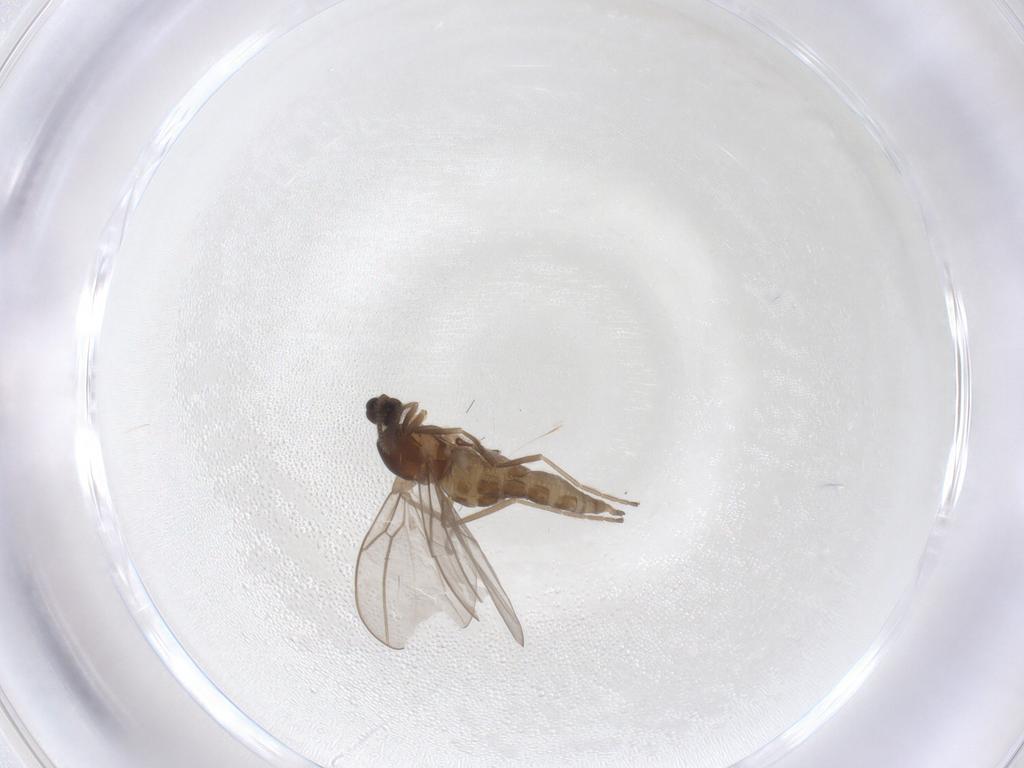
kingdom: Animalia
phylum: Arthropoda
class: Insecta
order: Diptera
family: Cecidomyiidae
